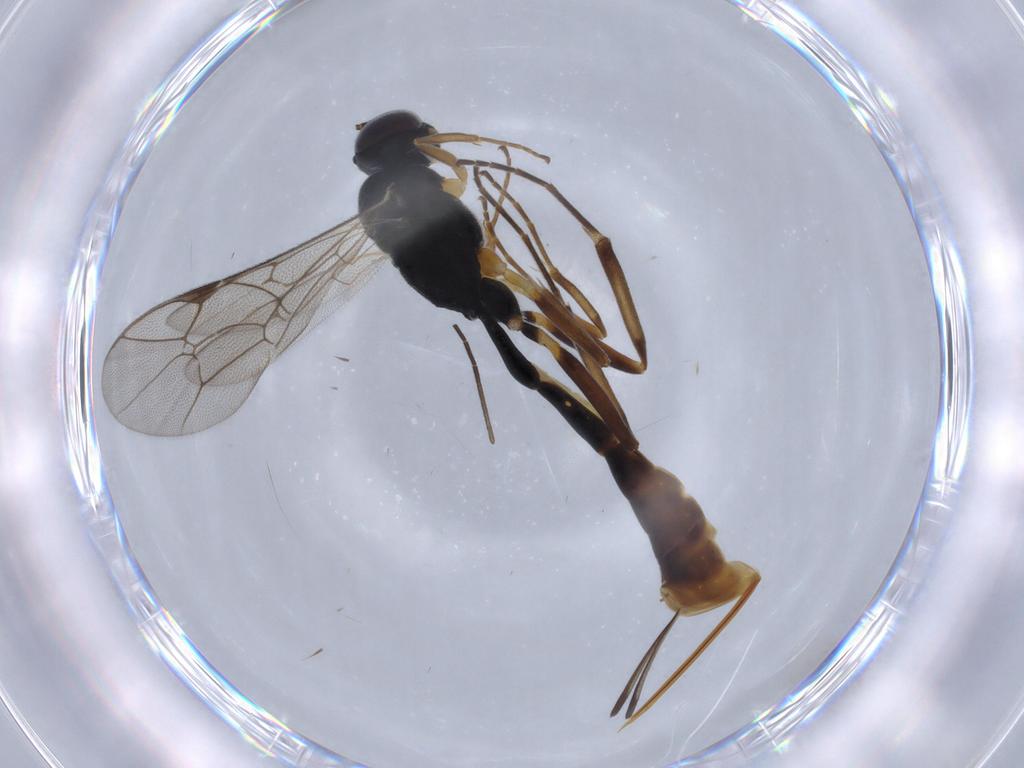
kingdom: Animalia
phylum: Arthropoda
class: Insecta
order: Hymenoptera
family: Ichneumonidae
